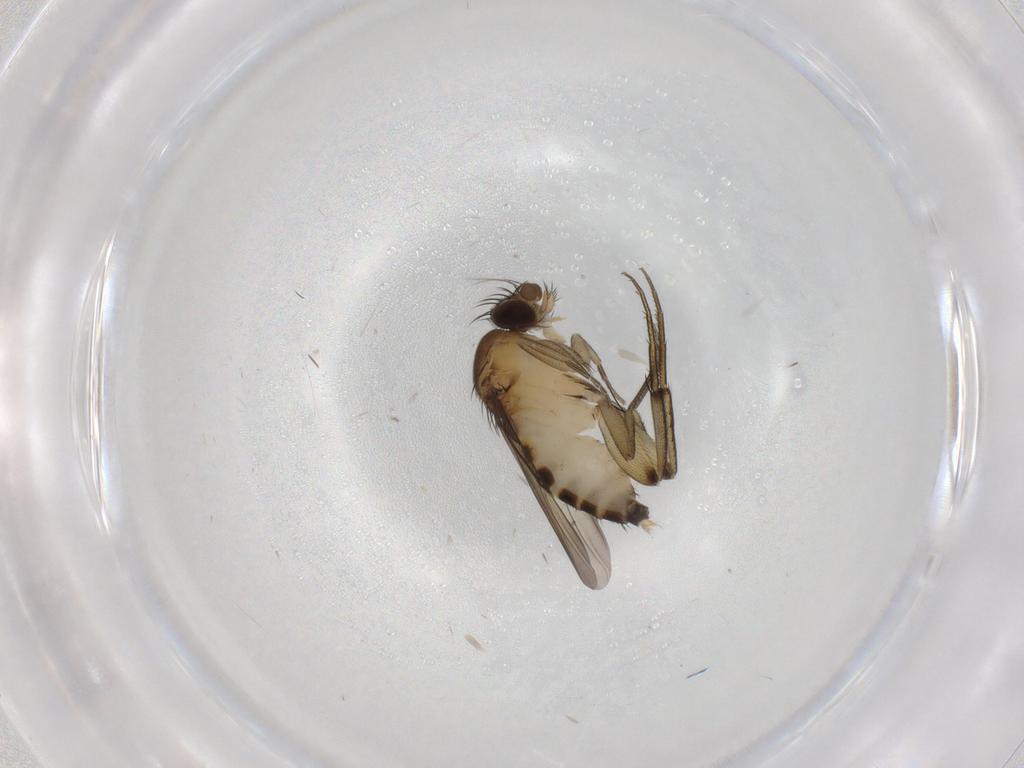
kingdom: Animalia
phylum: Arthropoda
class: Insecta
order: Diptera
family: Phoridae
